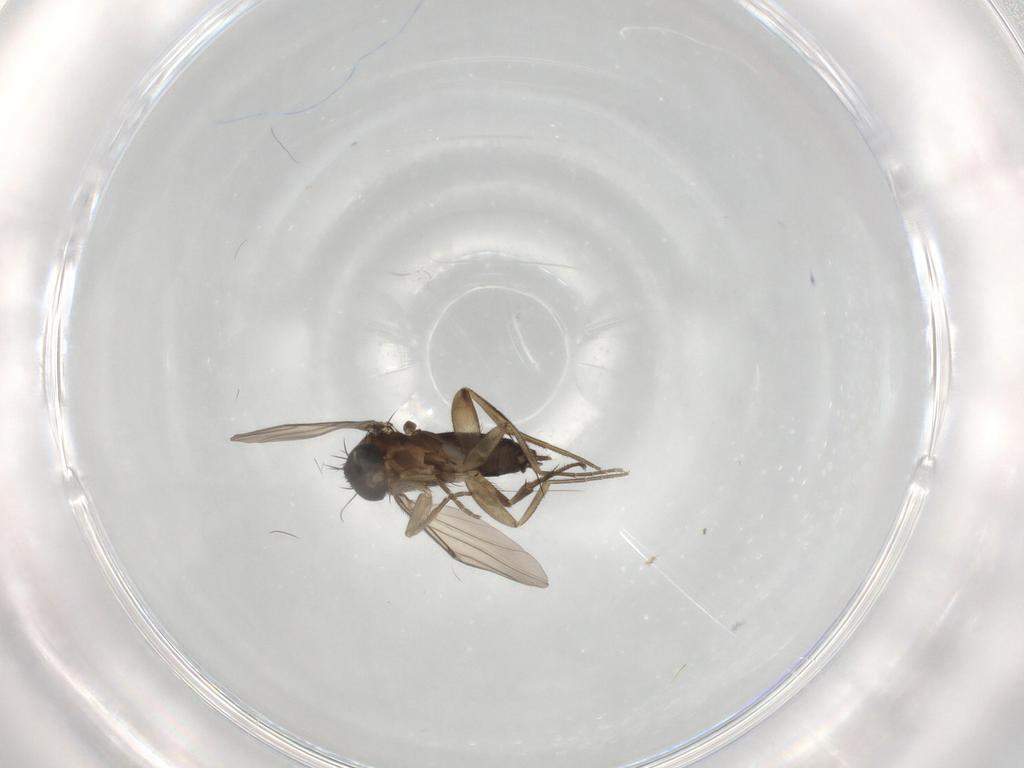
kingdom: Animalia
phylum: Arthropoda
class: Insecta
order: Diptera
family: Phoridae
